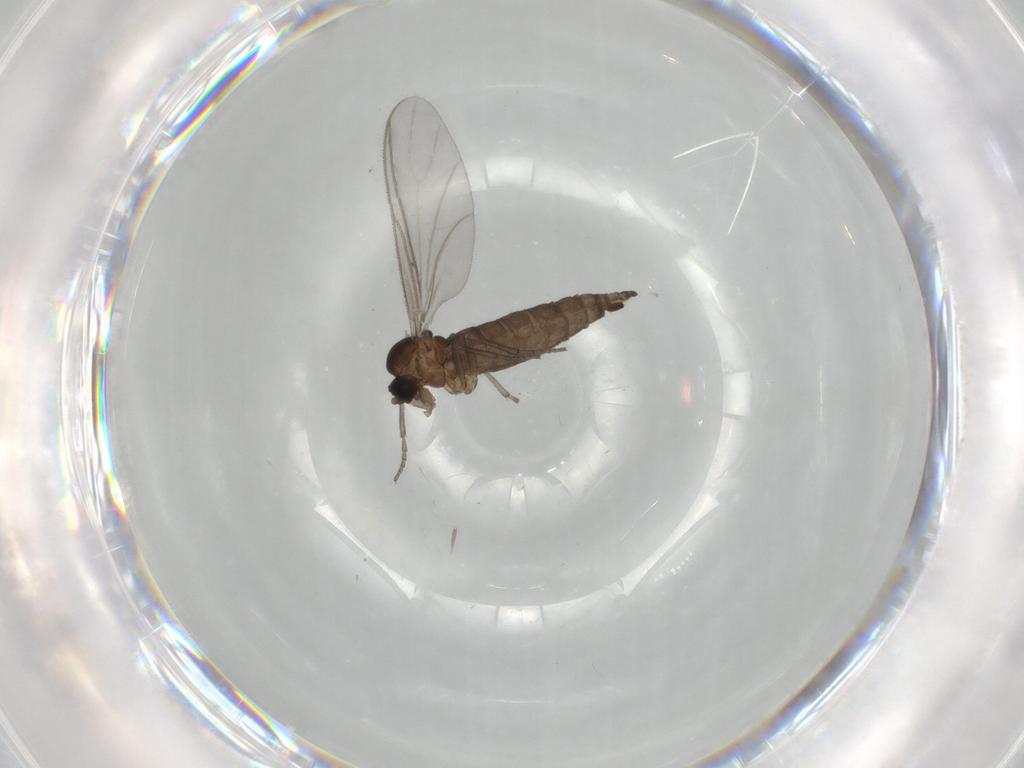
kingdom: Animalia
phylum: Arthropoda
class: Insecta
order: Diptera
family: Sciaridae
